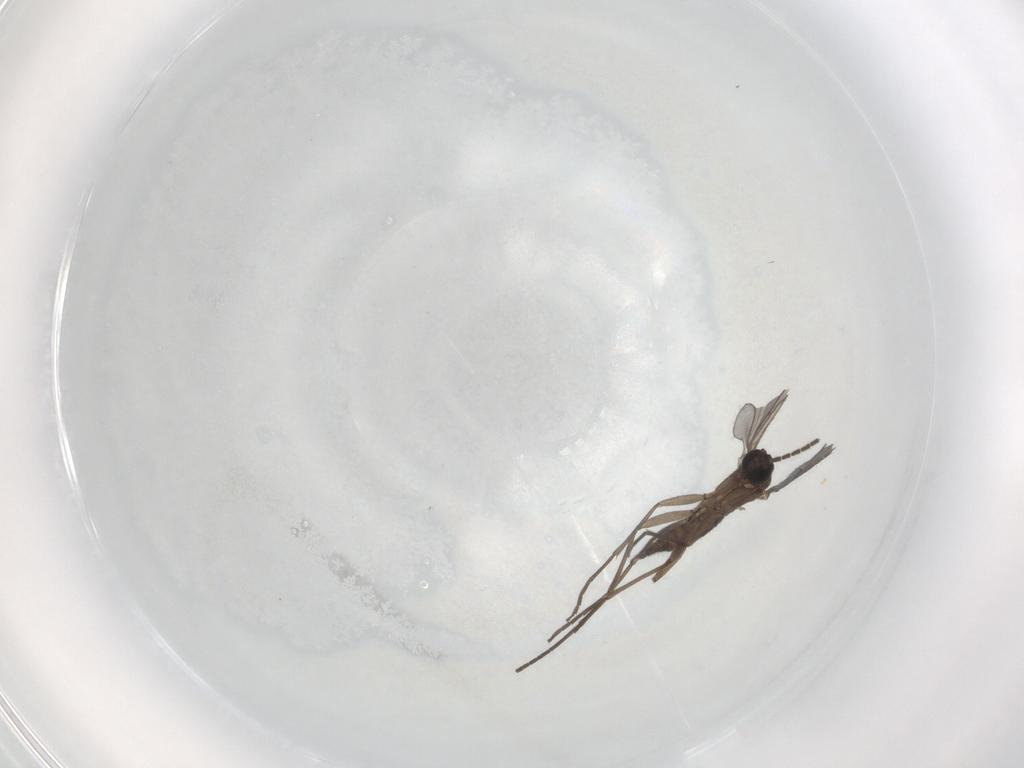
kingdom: Animalia
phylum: Arthropoda
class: Insecta
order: Diptera
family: Sciaridae
